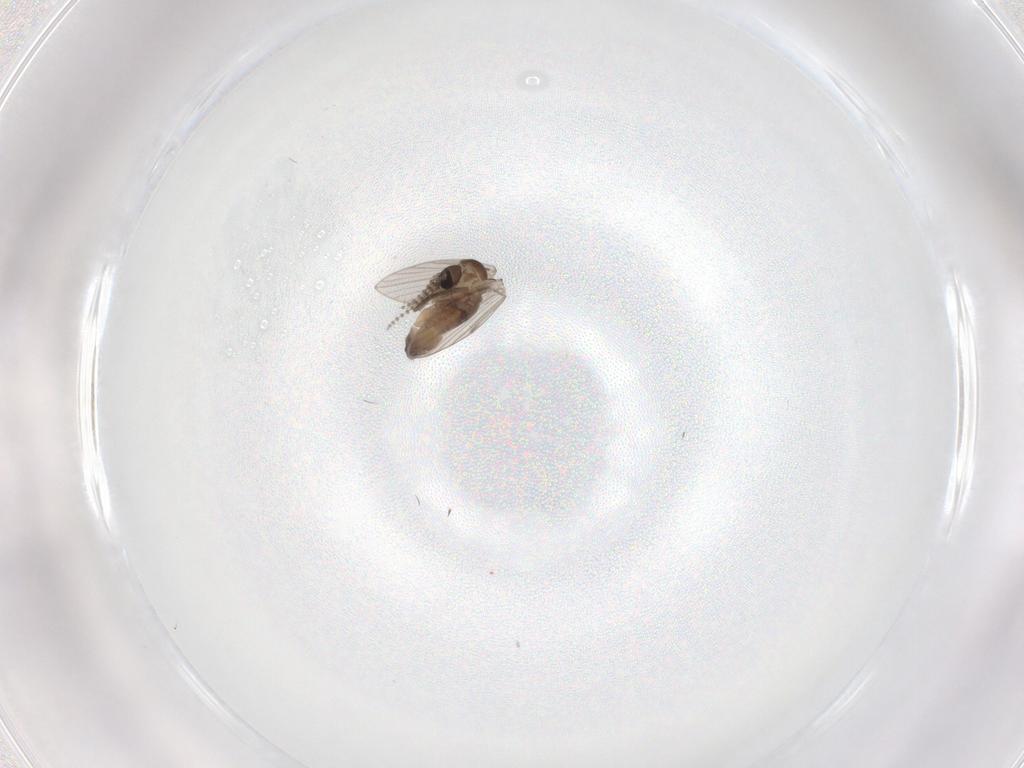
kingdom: Animalia
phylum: Arthropoda
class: Insecta
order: Diptera
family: Psychodidae
